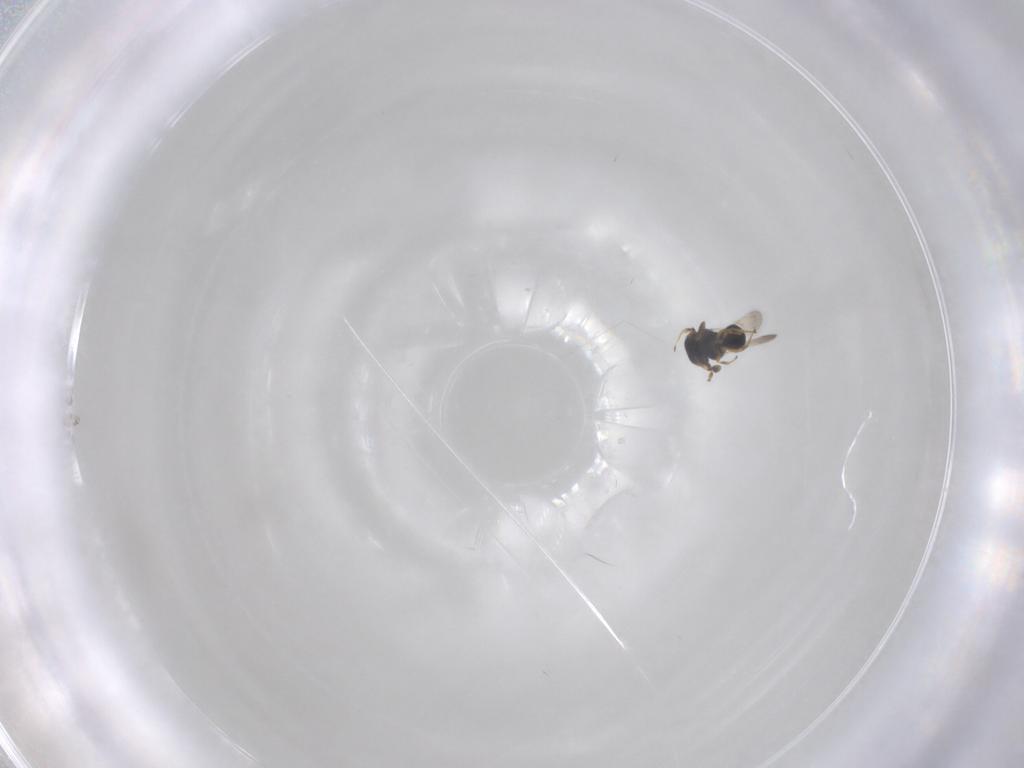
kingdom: Animalia
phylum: Arthropoda
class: Insecta
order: Hymenoptera
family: Scelionidae
